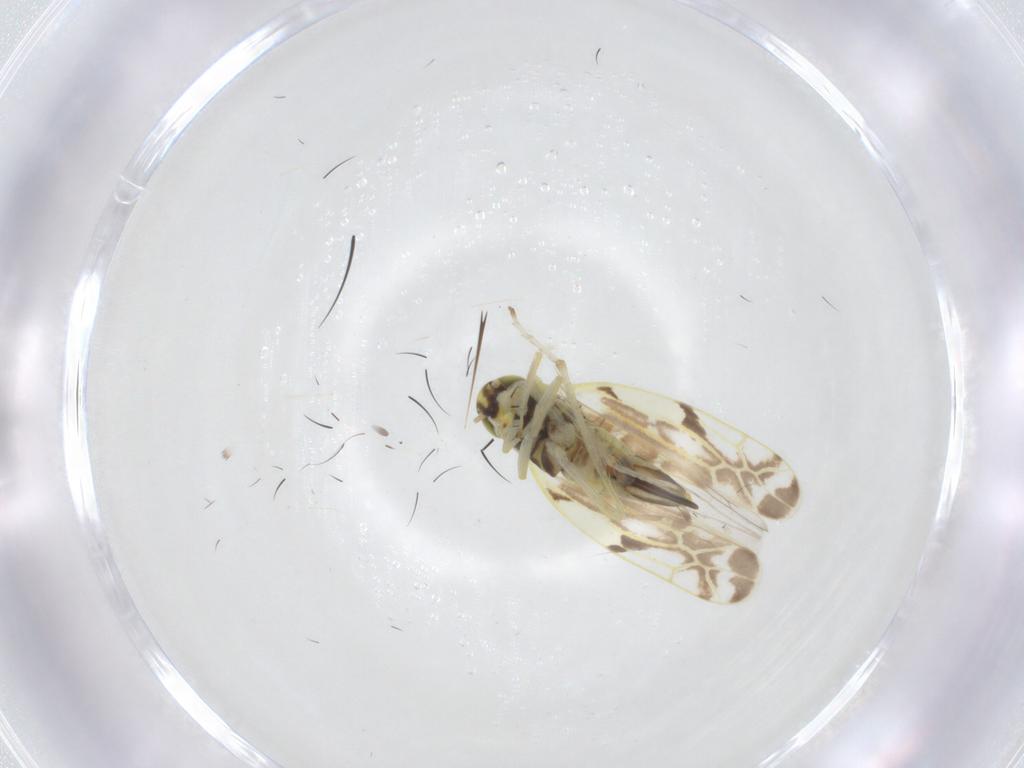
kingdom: Animalia
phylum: Arthropoda
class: Insecta
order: Hemiptera
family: Cicadellidae
